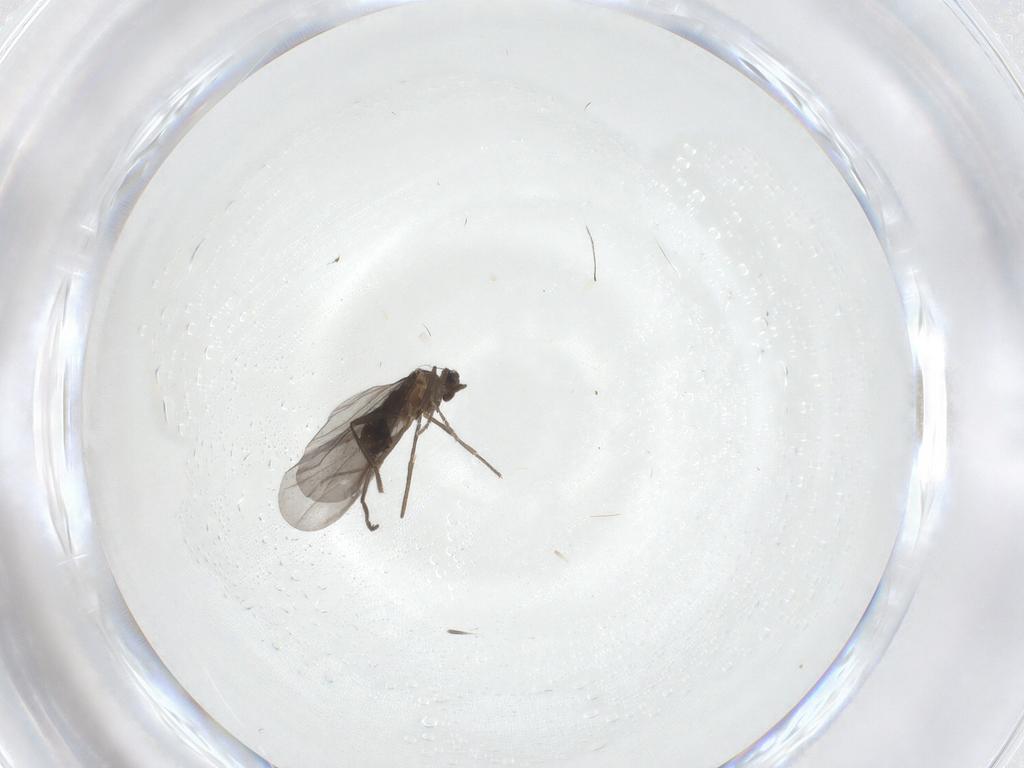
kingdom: Animalia
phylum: Arthropoda
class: Insecta
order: Diptera
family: Phoridae
